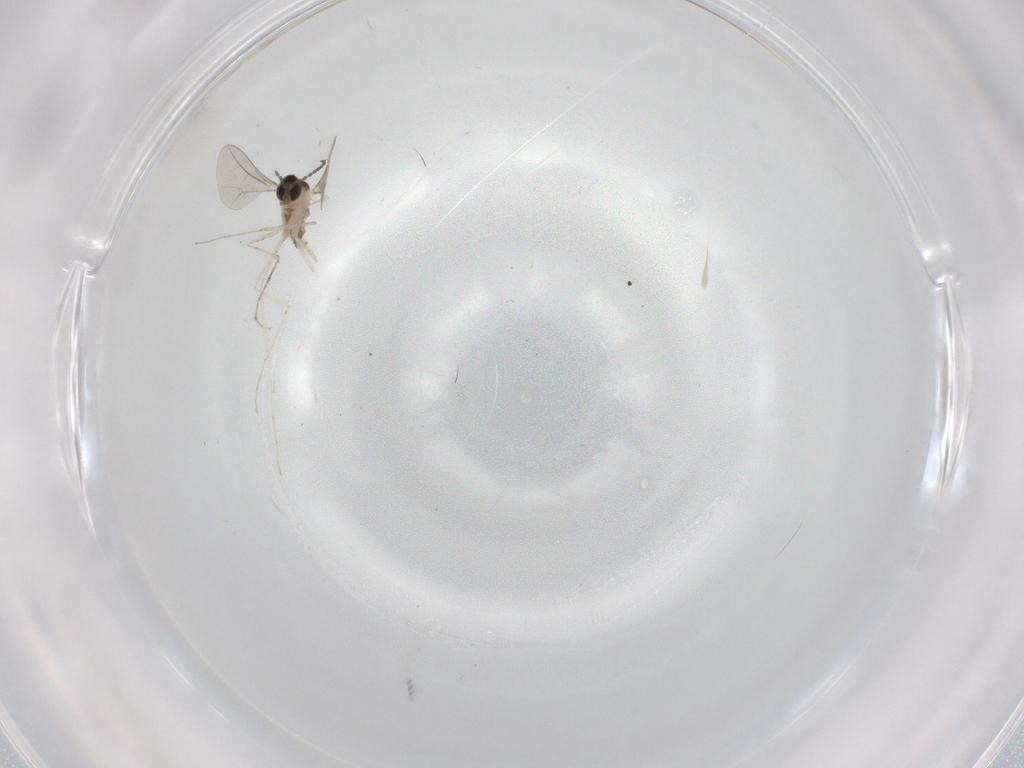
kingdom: Animalia
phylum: Arthropoda
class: Insecta
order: Diptera
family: Cecidomyiidae
